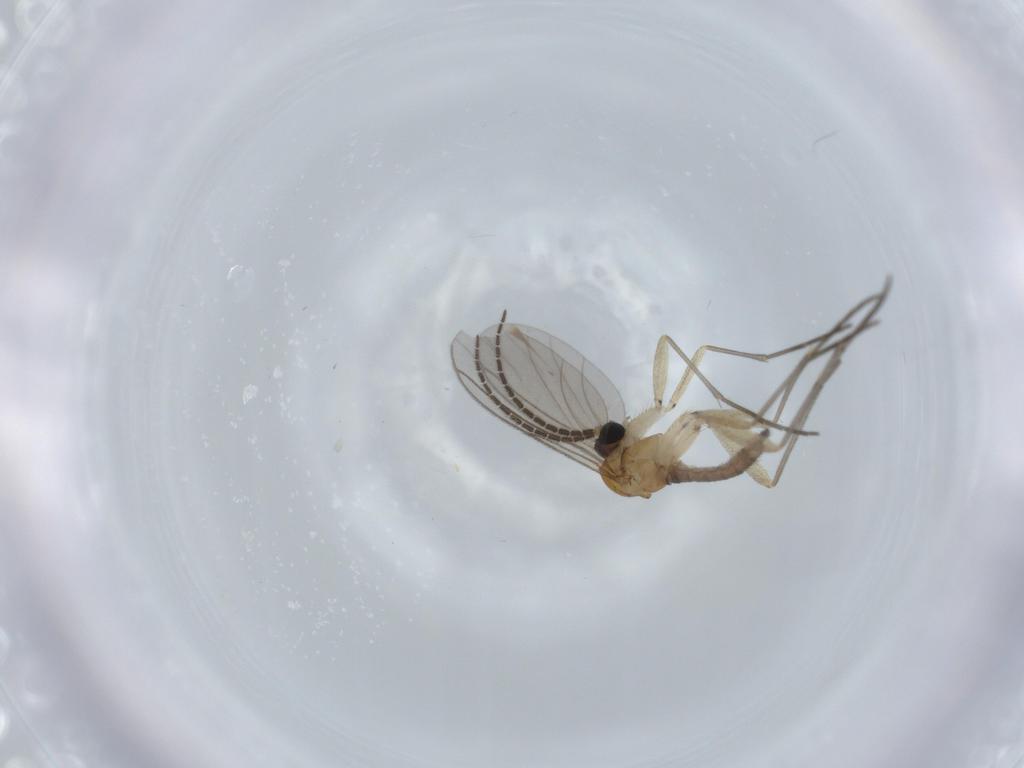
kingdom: Animalia
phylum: Arthropoda
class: Insecta
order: Diptera
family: Sciaridae
